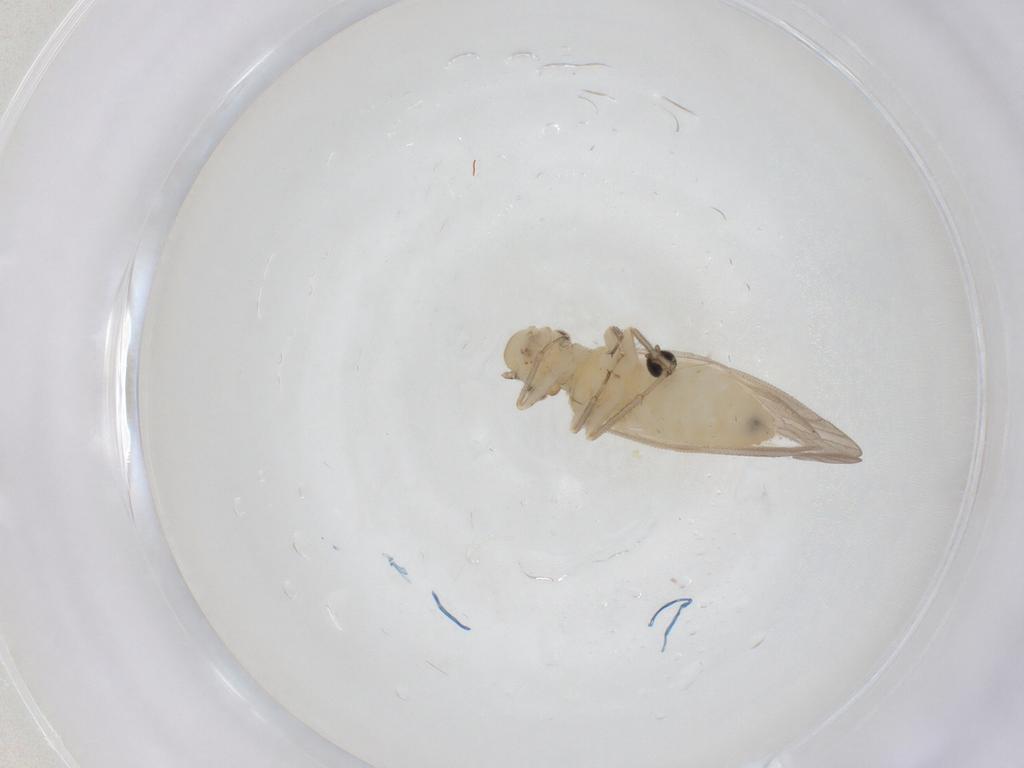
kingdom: Animalia
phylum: Arthropoda
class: Insecta
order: Psocodea
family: Caeciliusidae
